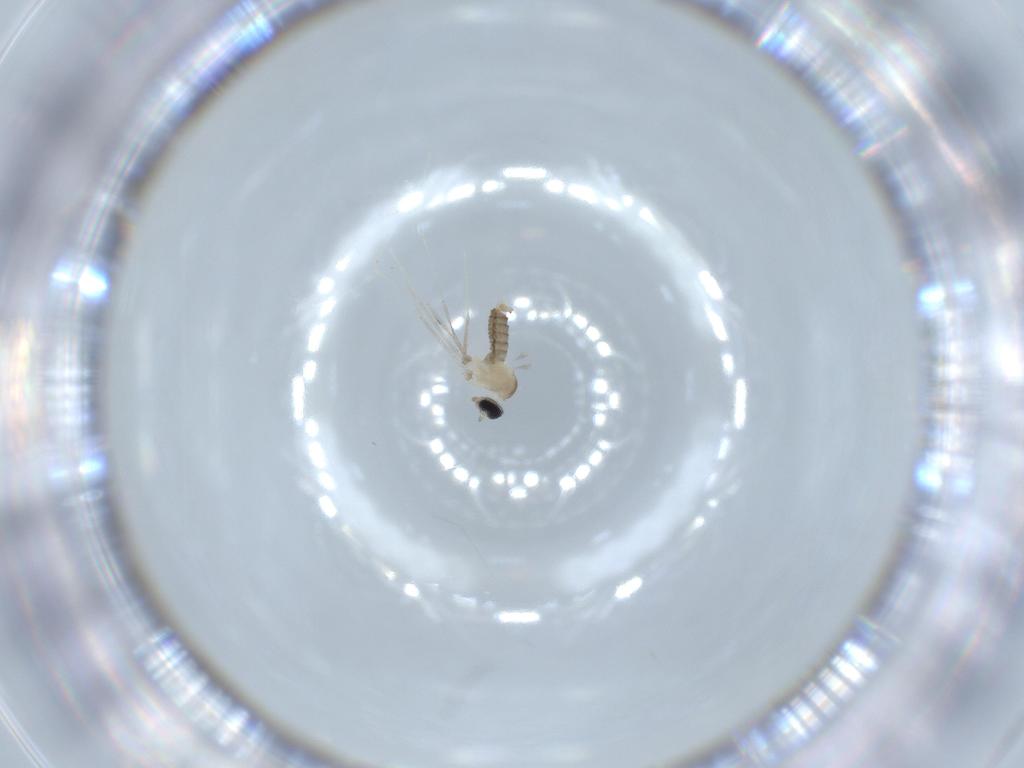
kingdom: Animalia
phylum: Arthropoda
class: Insecta
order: Diptera
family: Cecidomyiidae
